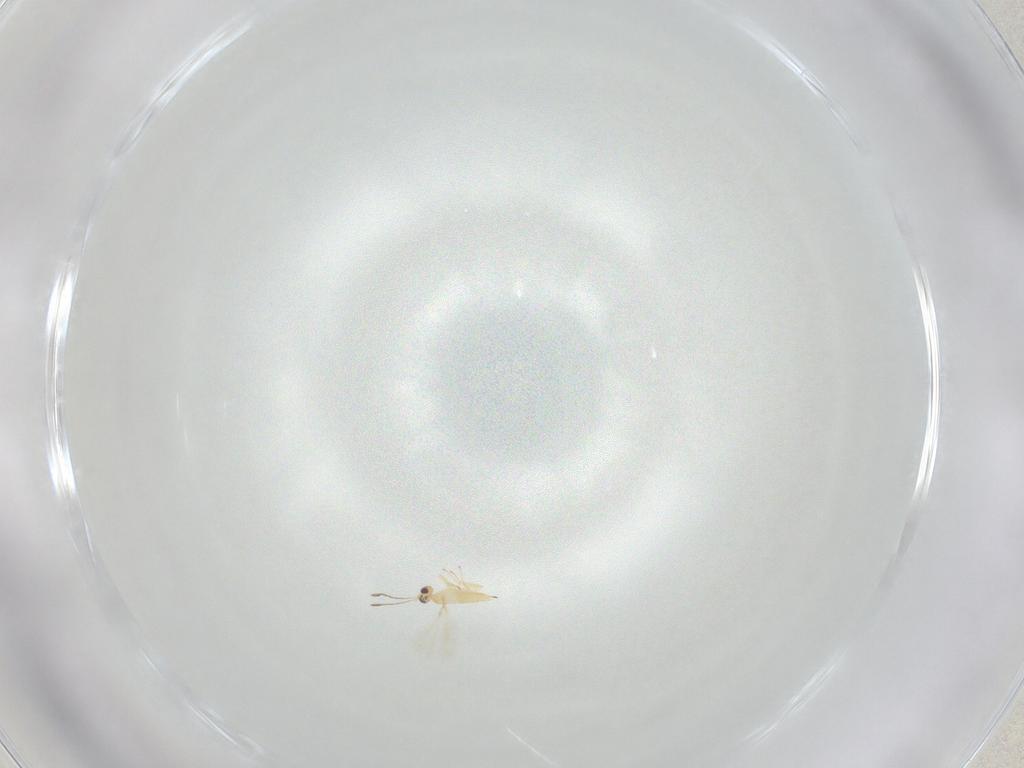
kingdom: Animalia
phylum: Arthropoda
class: Insecta
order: Hymenoptera
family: Mymaridae
